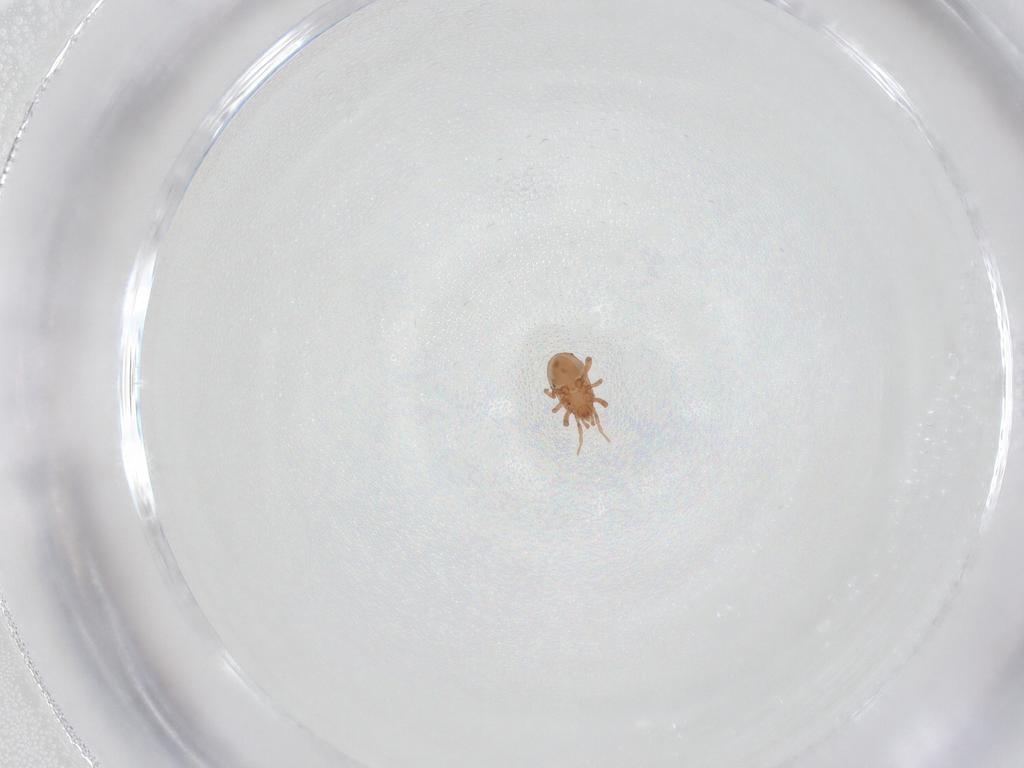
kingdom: Animalia
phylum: Arthropoda
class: Arachnida
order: Mesostigmata
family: Ologamasidae
